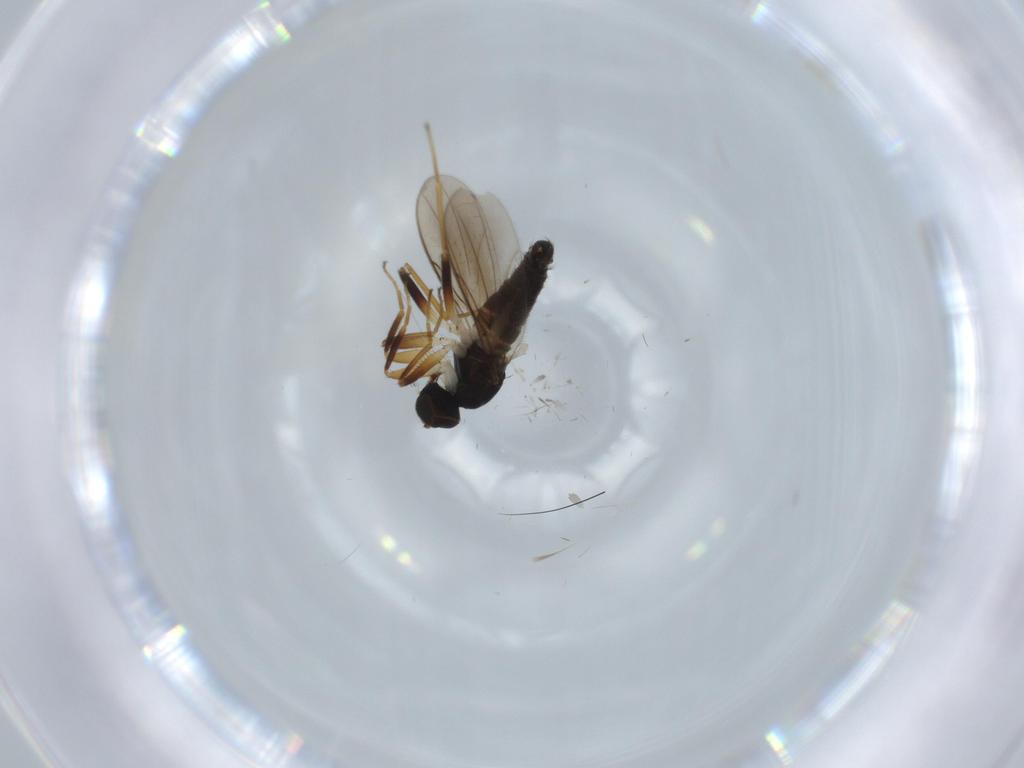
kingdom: Animalia
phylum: Arthropoda
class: Insecta
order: Diptera
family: Hybotidae
